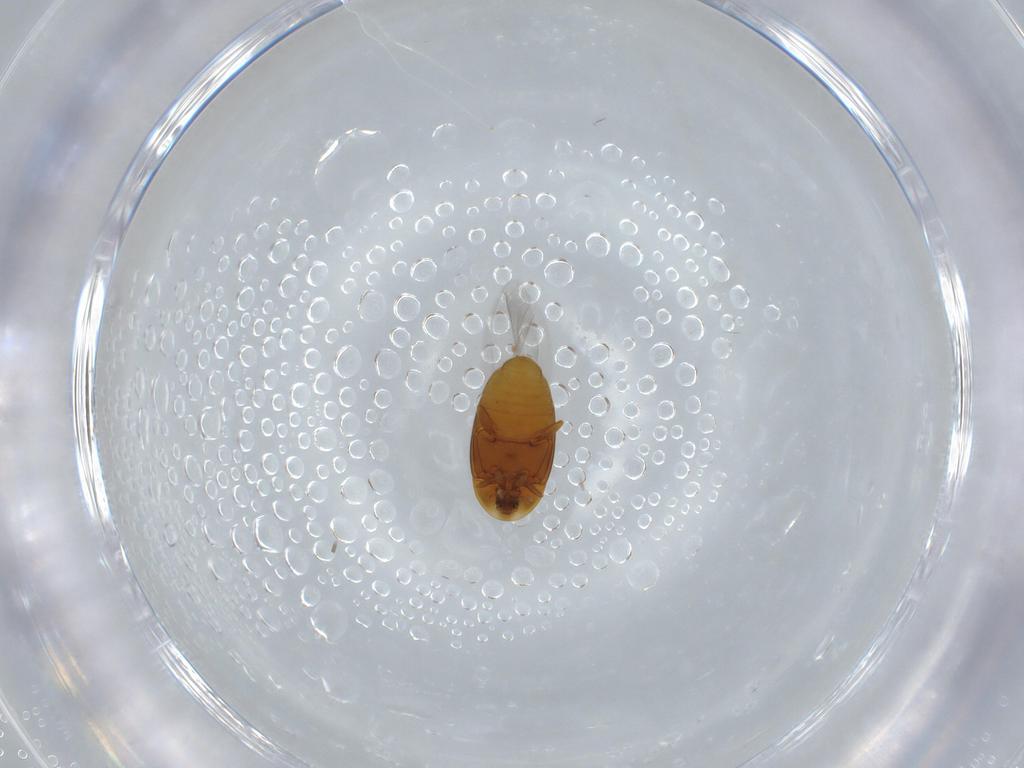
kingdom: Animalia
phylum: Arthropoda
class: Insecta
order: Coleoptera
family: Corylophidae
